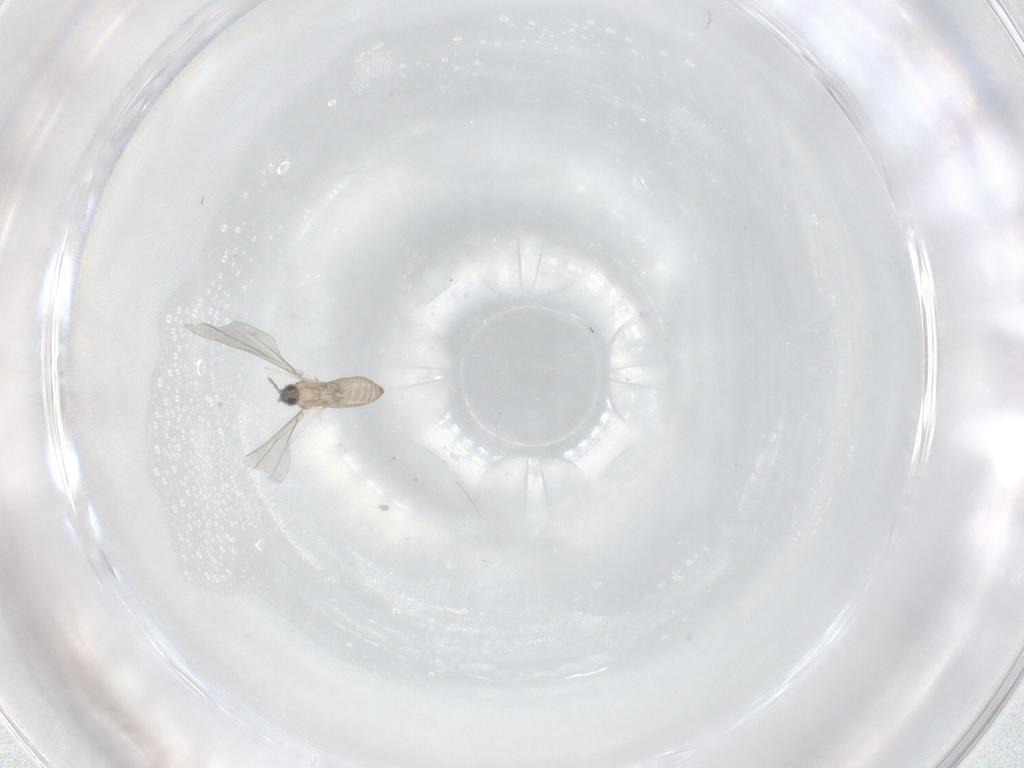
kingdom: Animalia
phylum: Arthropoda
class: Insecta
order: Diptera
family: Cecidomyiidae
